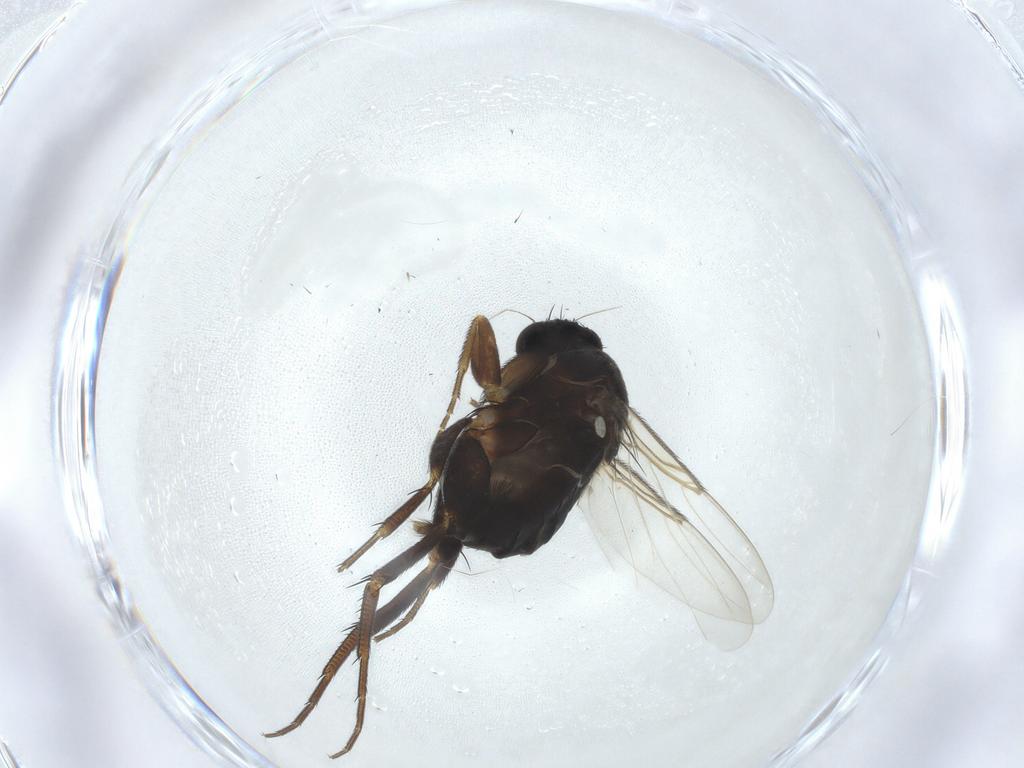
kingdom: Animalia
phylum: Arthropoda
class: Insecta
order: Diptera
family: Phoridae
